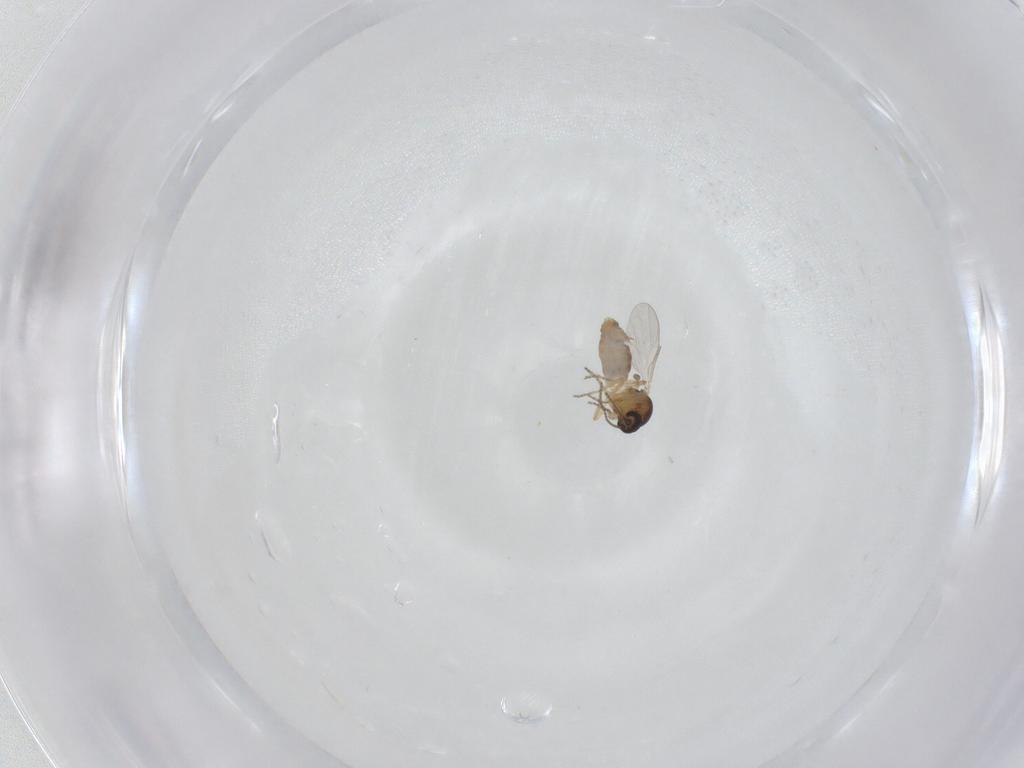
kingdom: Animalia
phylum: Arthropoda
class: Insecta
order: Diptera
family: Ceratopogonidae
